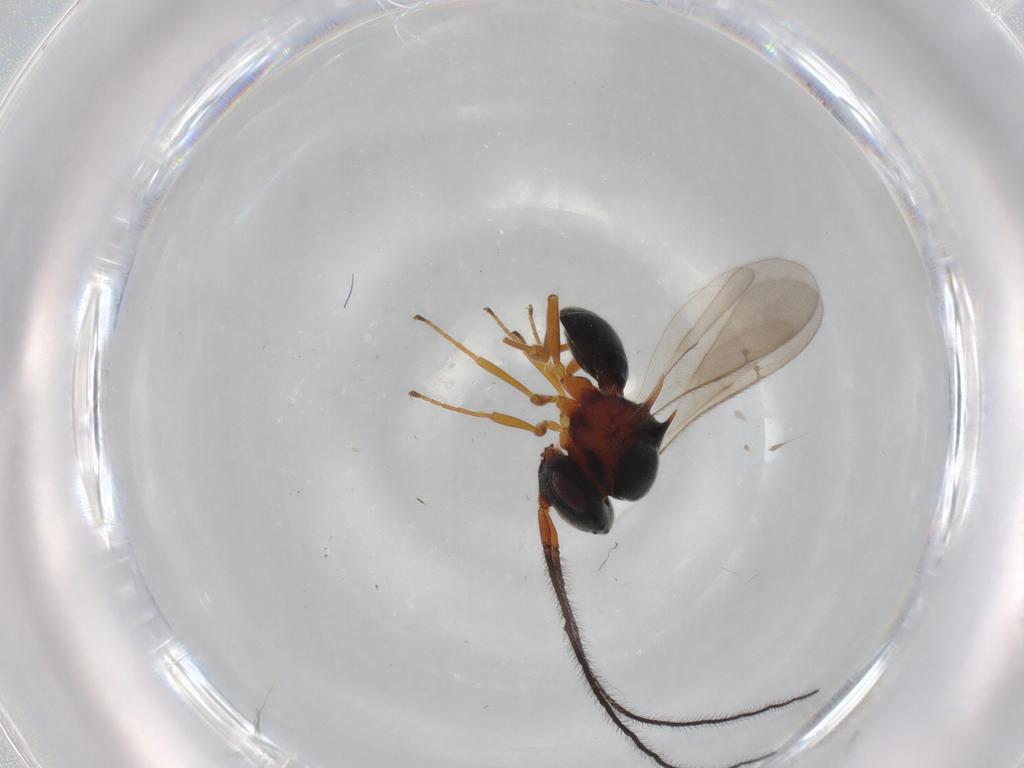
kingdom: Animalia
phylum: Arthropoda
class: Insecta
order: Hymenoptera
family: Scelionidae
